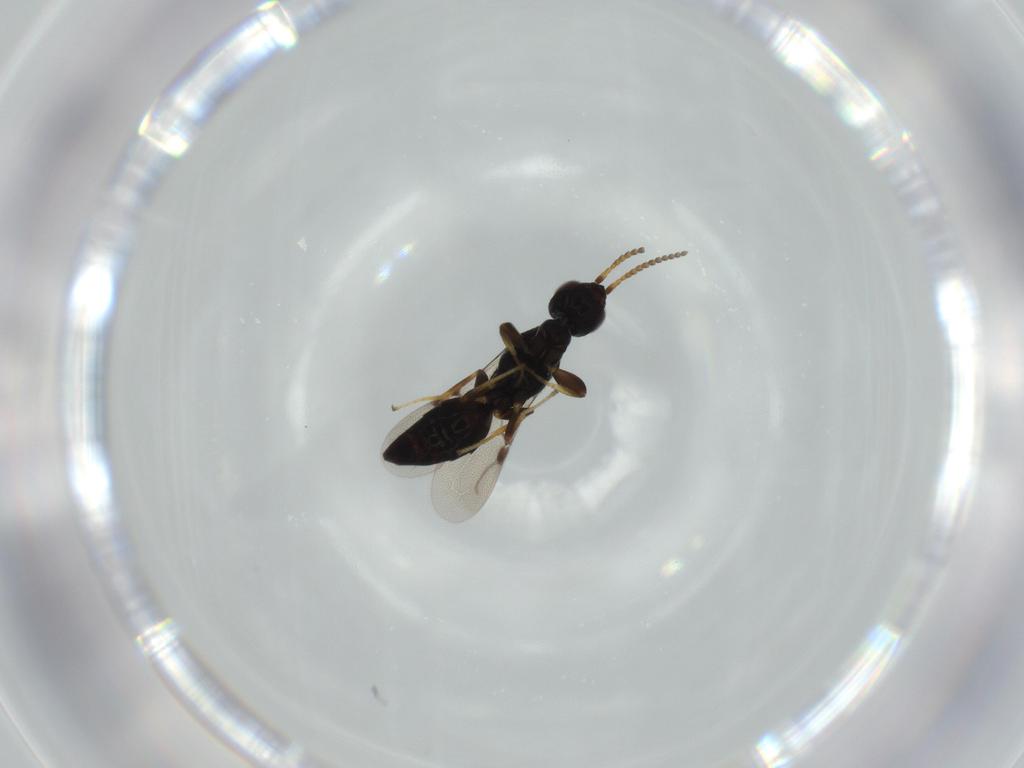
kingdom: Animalia
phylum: Arthropoda
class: Insecta
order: Hymenoptera
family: Bethylidae
